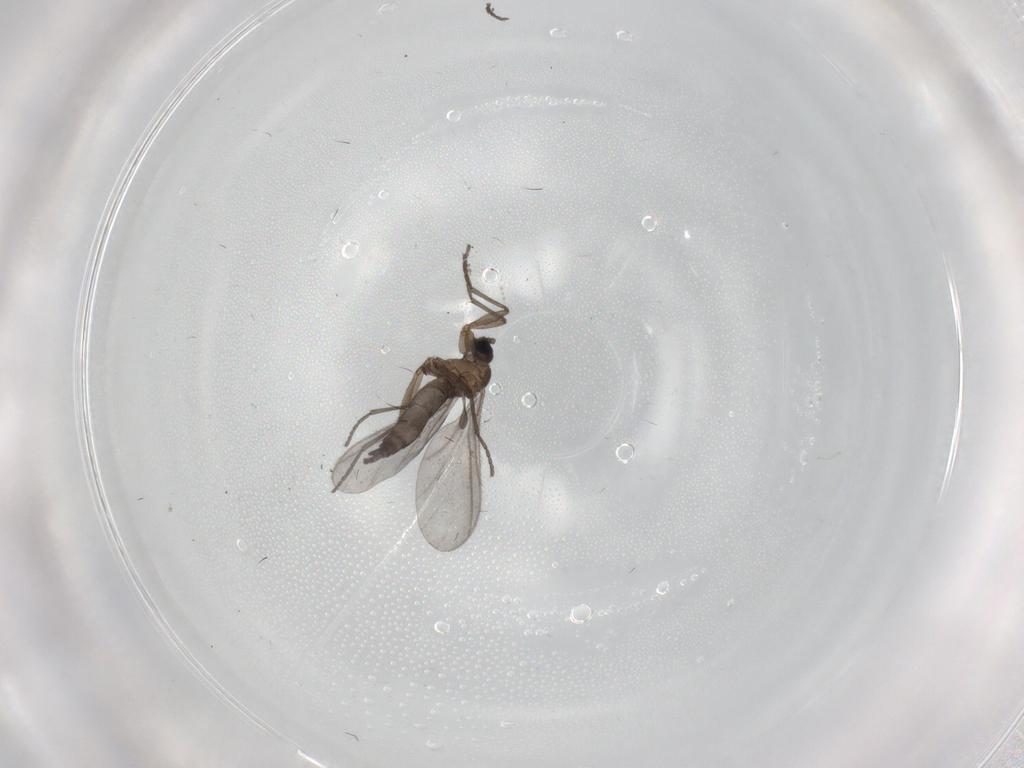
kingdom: Animalia
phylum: Arthropoda
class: Insecta
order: Diptera
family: Sciaridae
